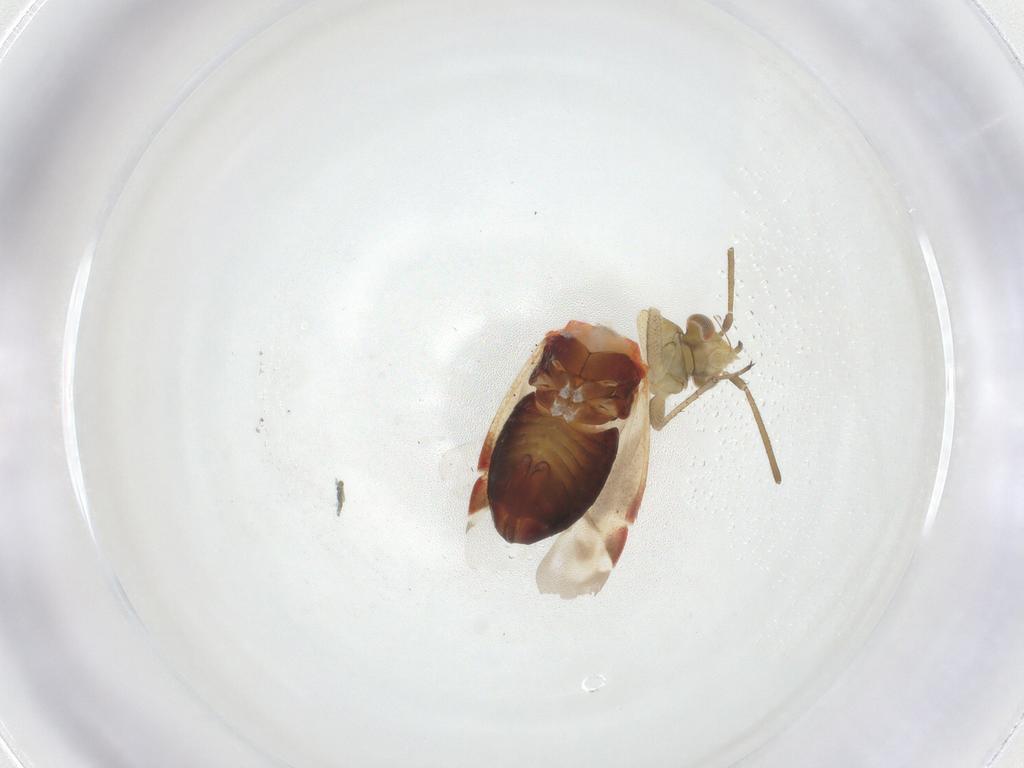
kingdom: Animalia
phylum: Arthropoda
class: Insecta
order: Hemiptera
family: Miridae
